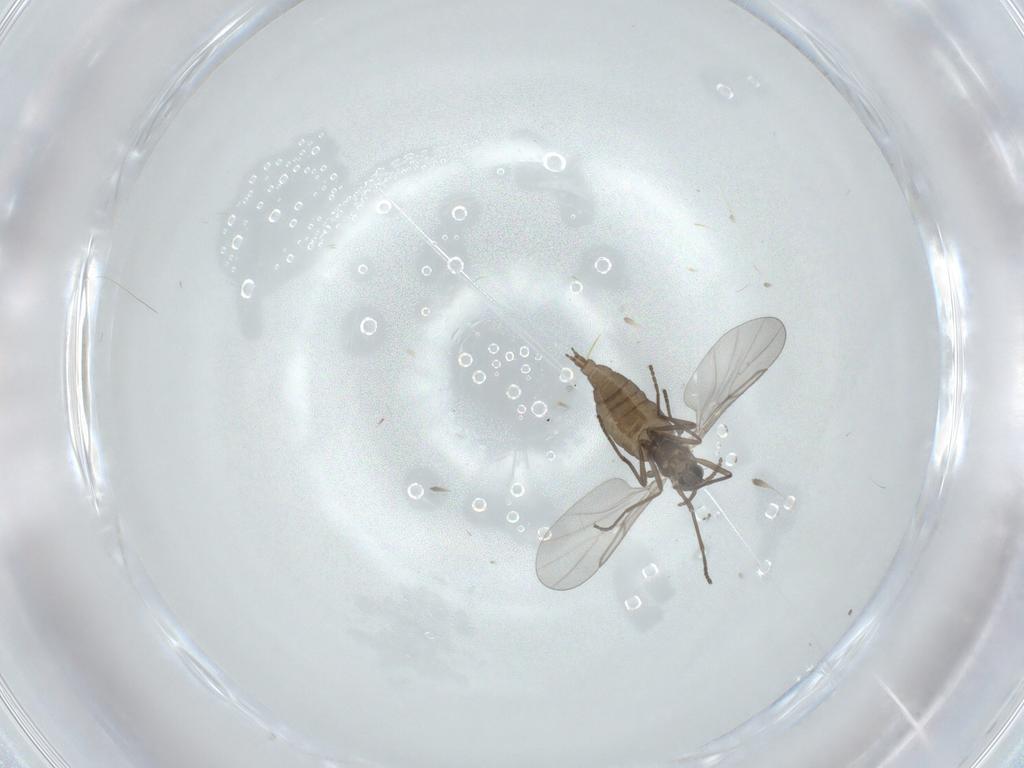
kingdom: Animalia
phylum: Arthropoda
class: Insecta
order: Diptera
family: Cecidomyiidae
